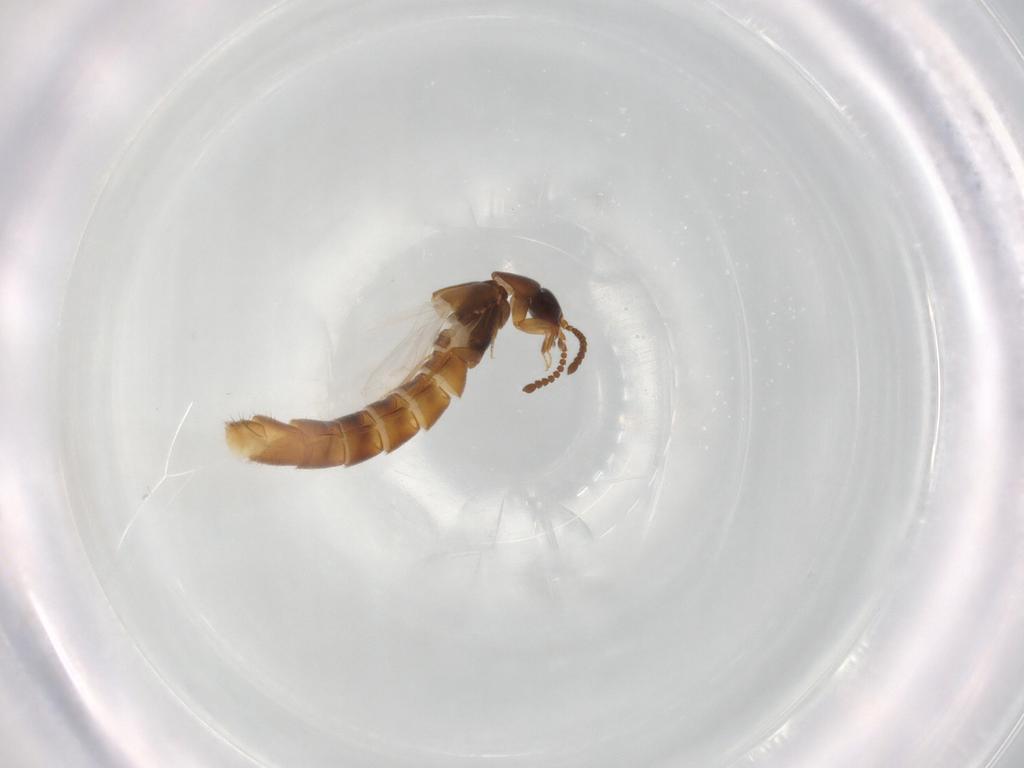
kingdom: Animalia
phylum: Arthropoda
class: Insecta
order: Coleoptera
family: Staphylinidae
